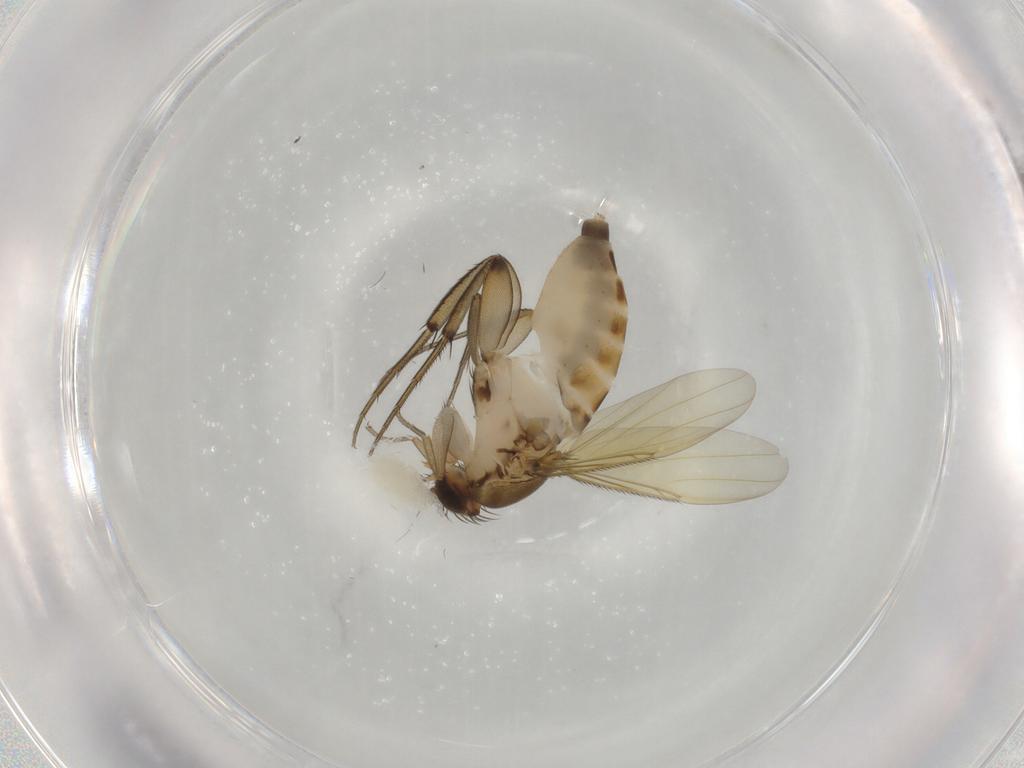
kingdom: Animalia
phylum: Arthropoda
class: Insecta
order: Diptera
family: Phoridae
